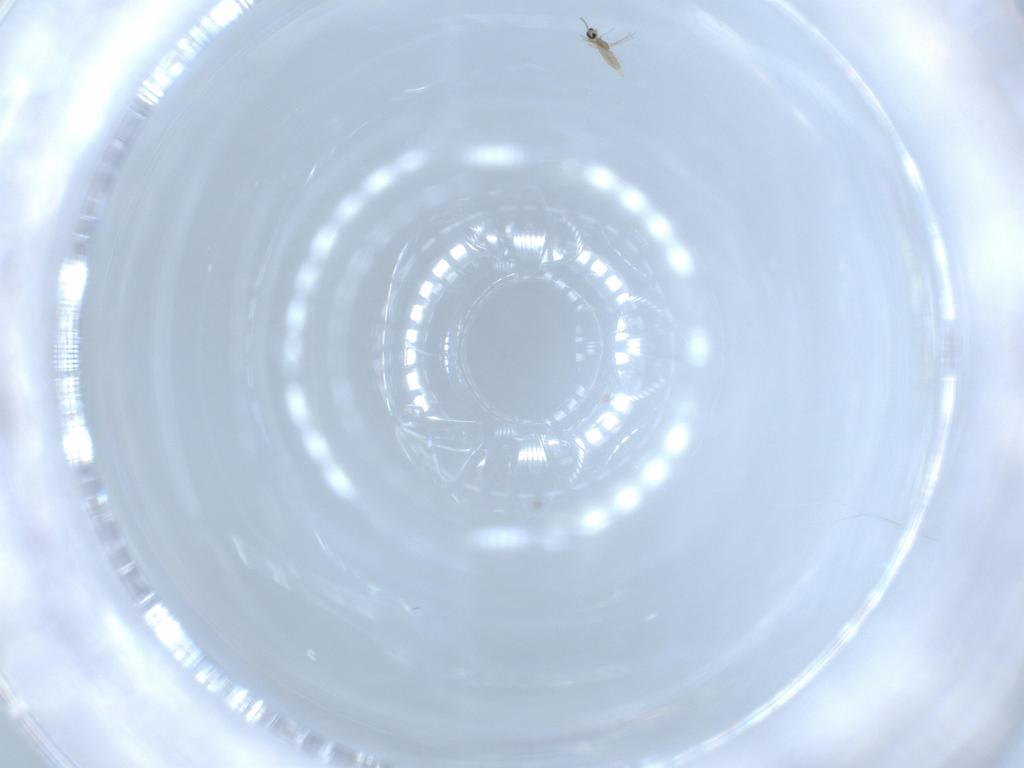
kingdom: Animalia
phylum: Arthropoda
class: Insecta
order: Diptera
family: Cecidomyiidae
